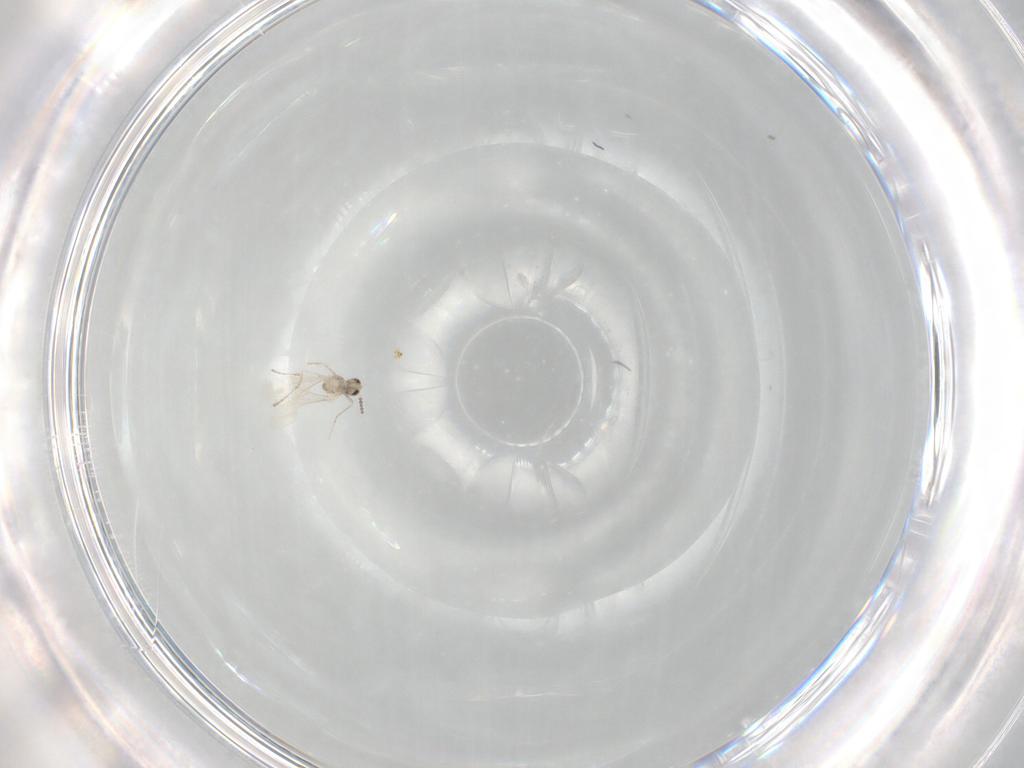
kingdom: Animalia
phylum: Arthropoda
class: Insecta
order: Diptera
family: Cecidomyiidae
